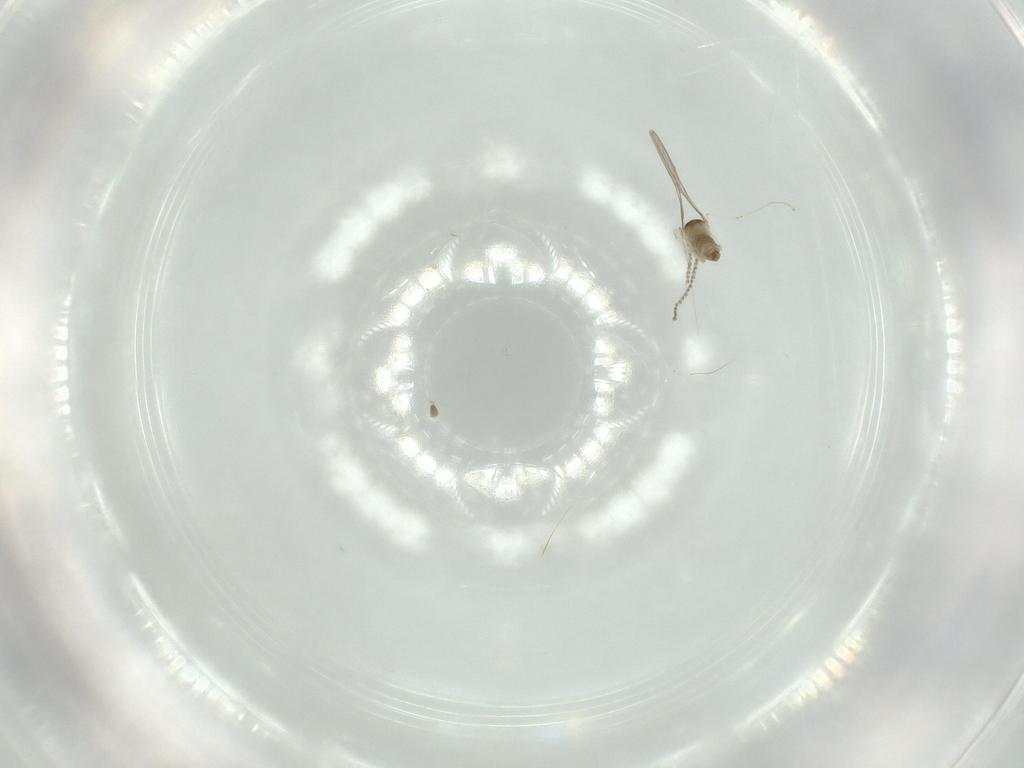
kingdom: Animalia
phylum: Arthropoda
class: Insecta
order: Diptera
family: Cecidomyiidae
